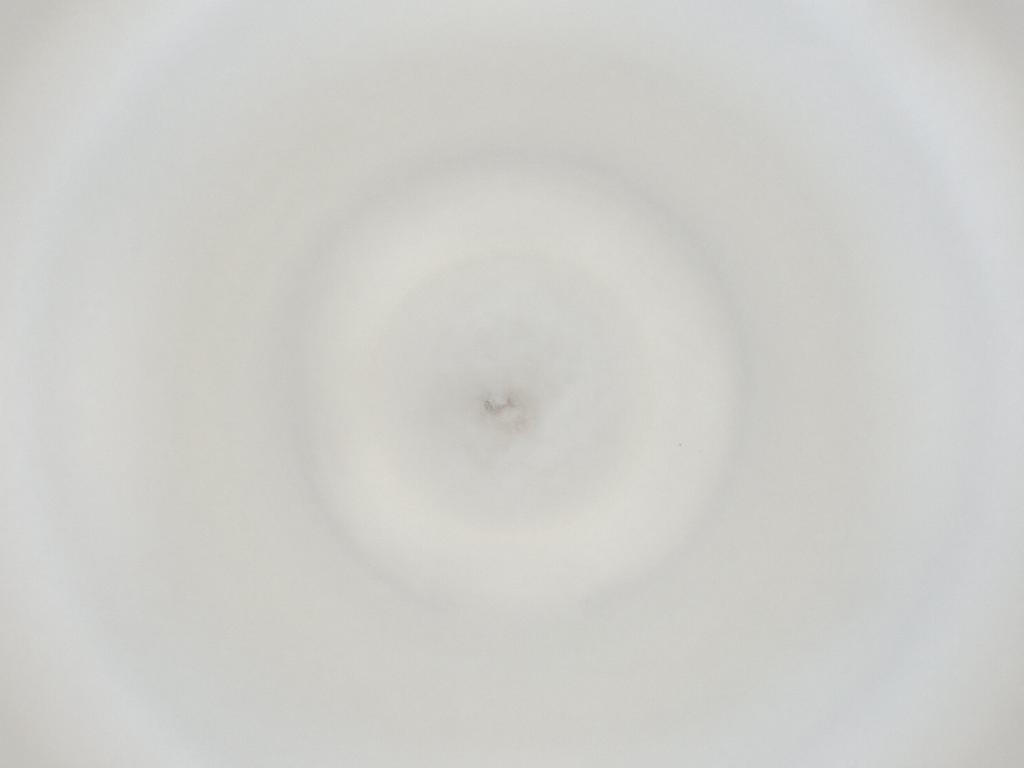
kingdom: Animalia
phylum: Arthropoda
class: Insecta
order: Diptera
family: Cecidomyiidae
